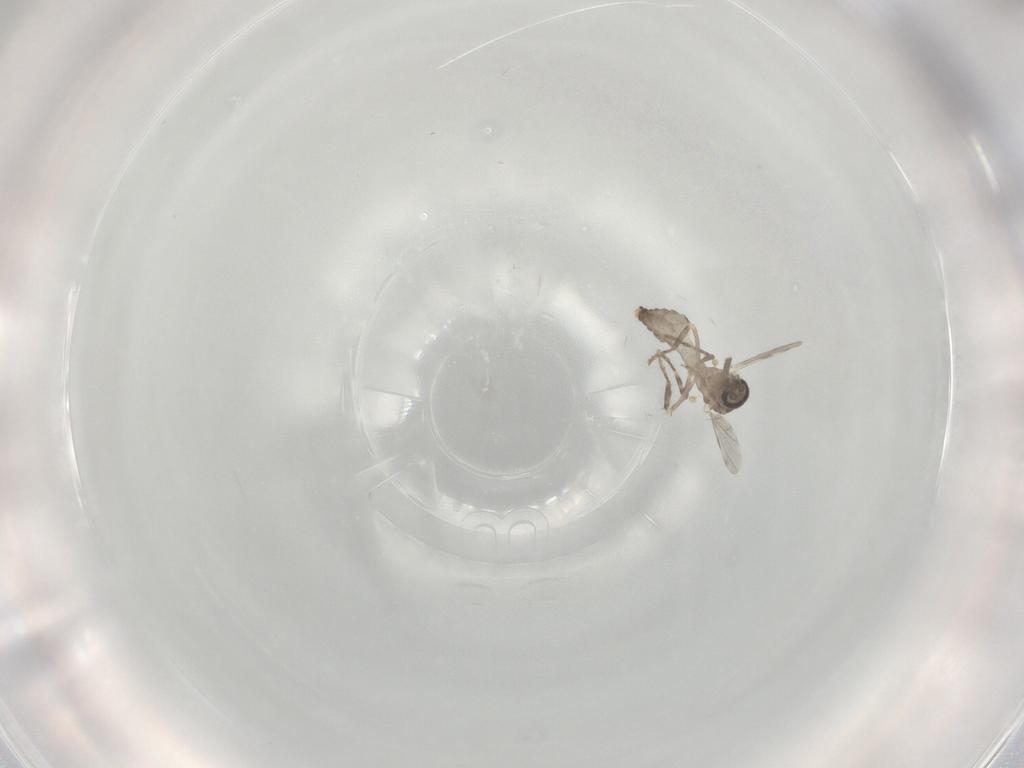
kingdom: Animalia
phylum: Arthropoda
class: Insecta
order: Diptera
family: Ceratopogonidae
